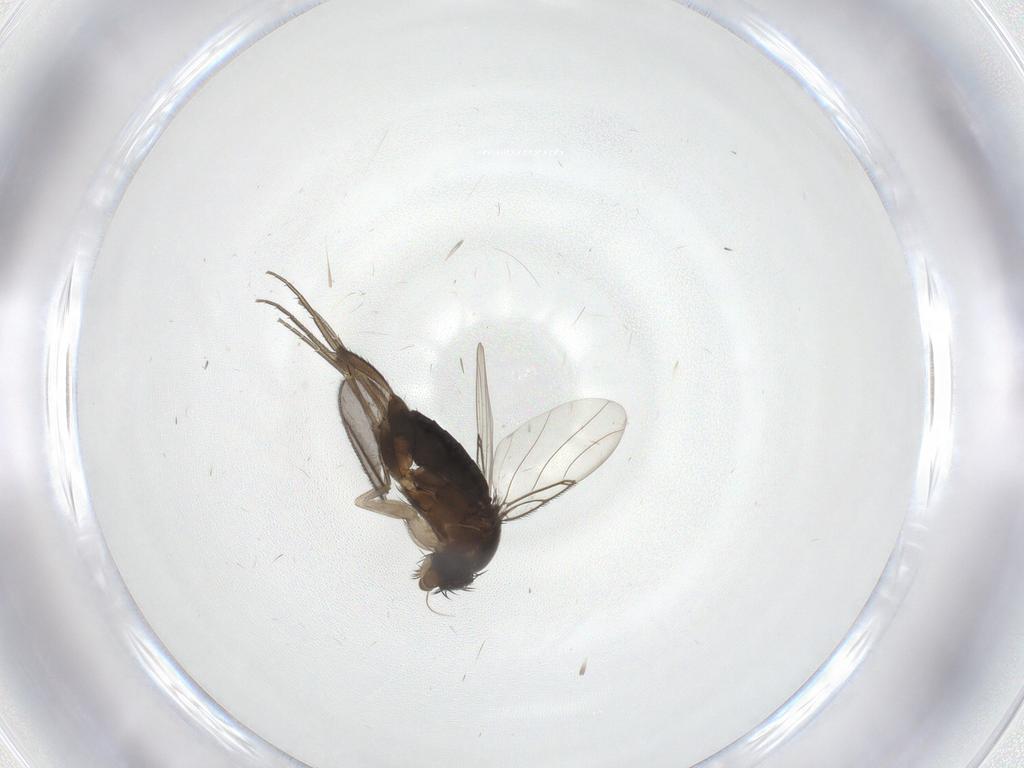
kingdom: Animalia
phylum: Arthropoda
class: Insecta
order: Diptera
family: Phoridae
